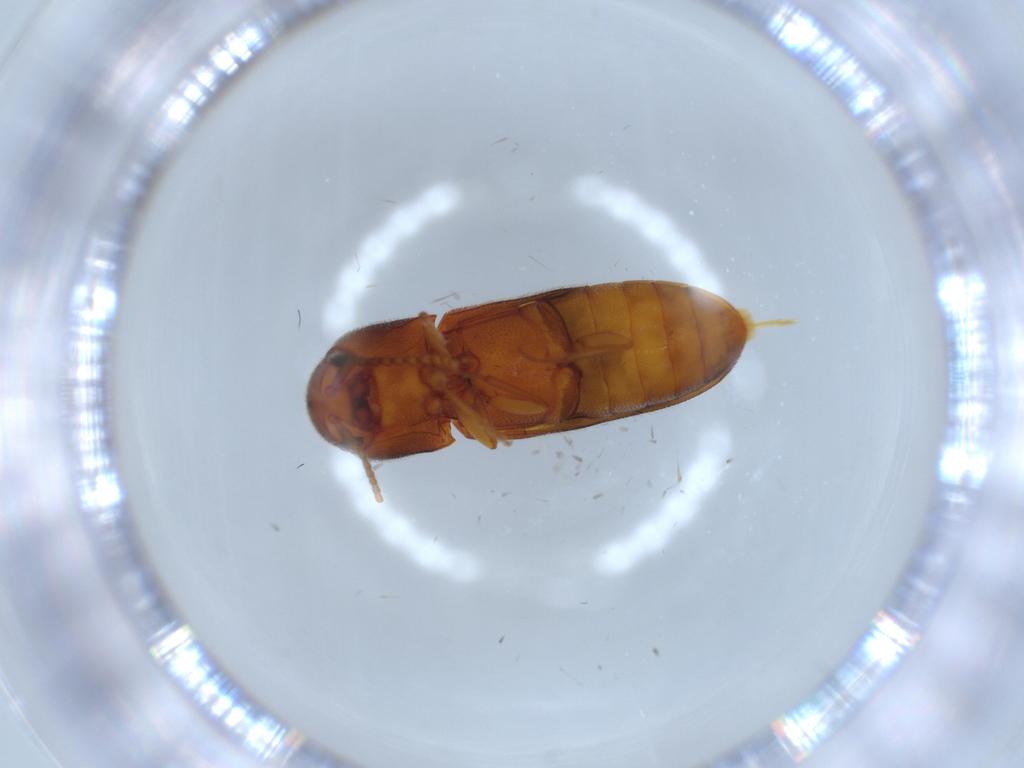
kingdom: Animalia
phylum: Arthropoda
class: Insecta
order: Coleoptera
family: Eucnemidae
